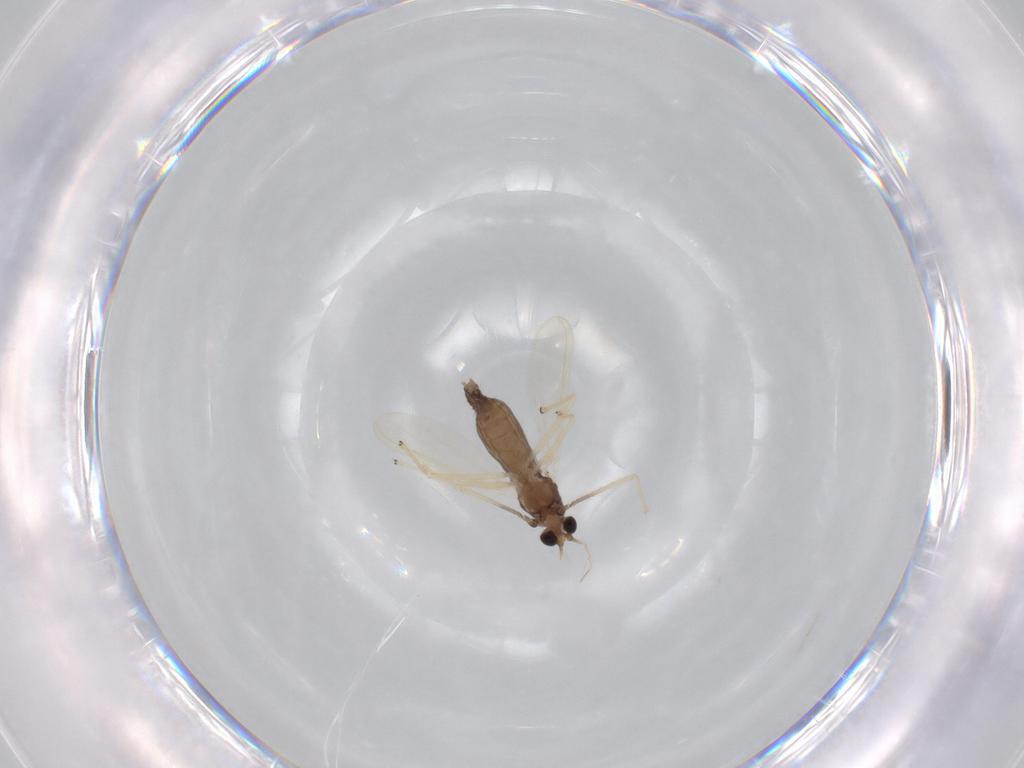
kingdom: Animalia
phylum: Arthropoda
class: Insecta
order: Diptera
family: Chironomidae
